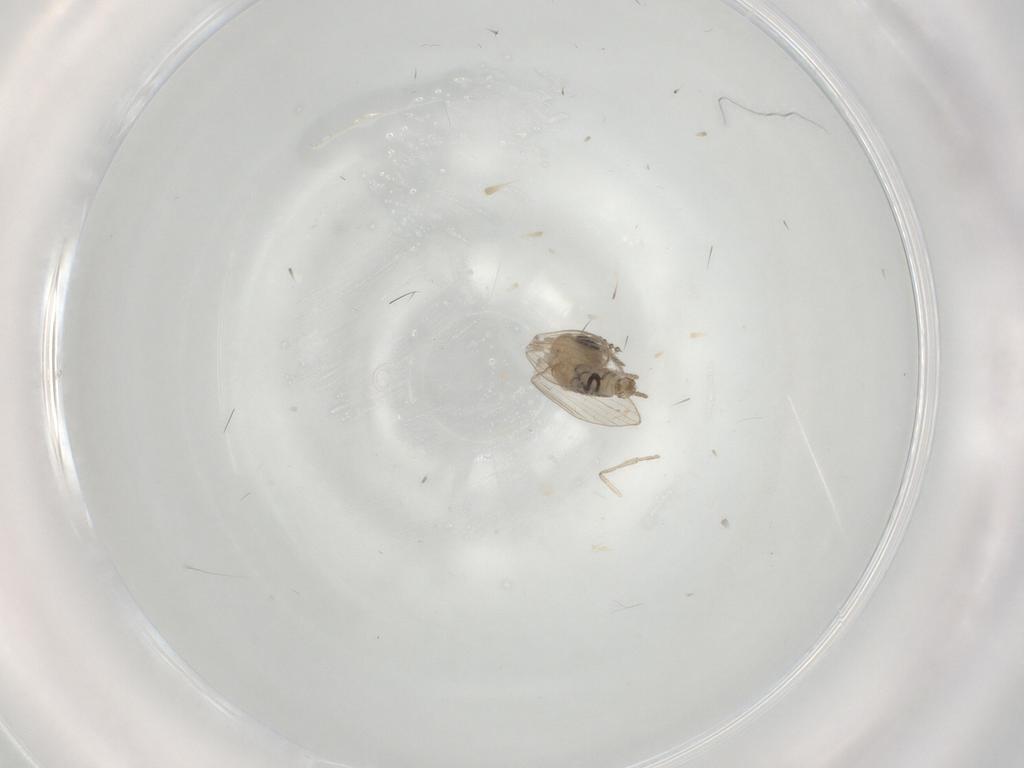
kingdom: Animalia
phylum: Arthropoda
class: Insecta
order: Diptera
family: Psychodidae
